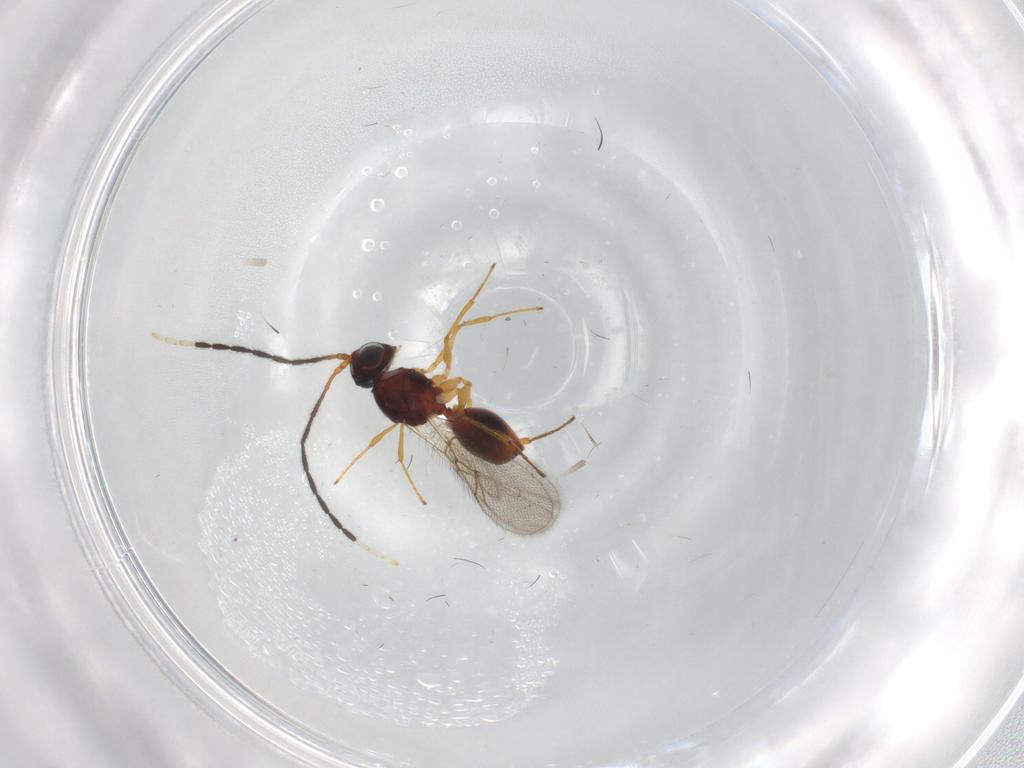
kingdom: Animalia
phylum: Arthropoda
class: Insecta
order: Hymenoptera
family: Figitidae
